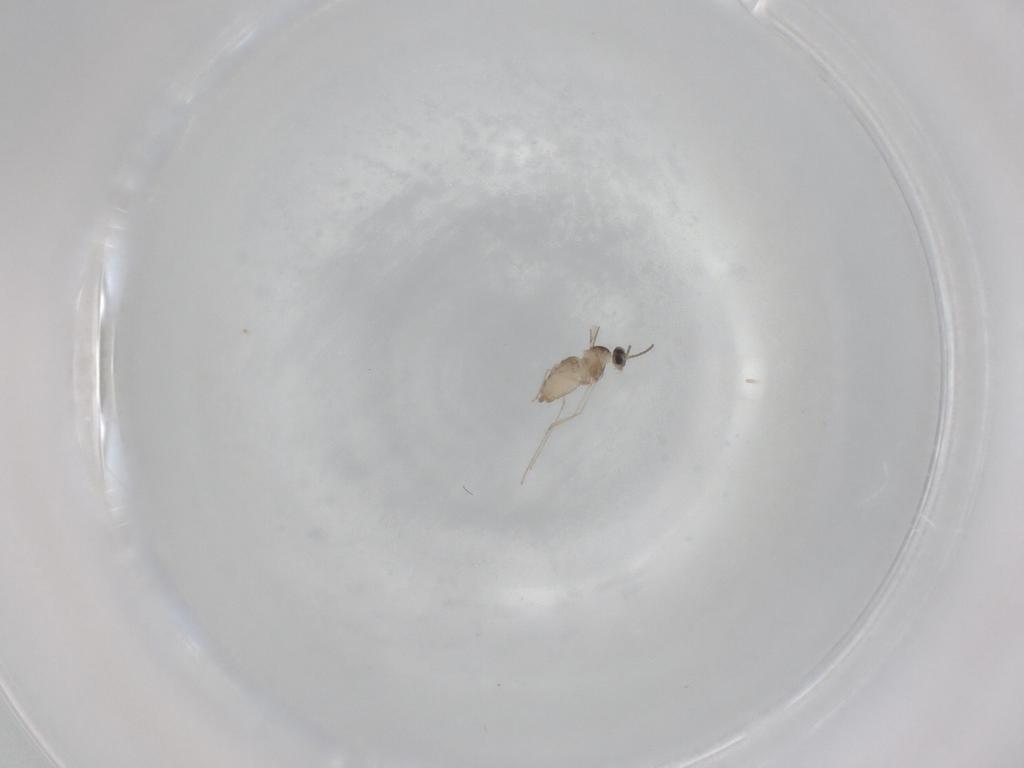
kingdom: Animalia
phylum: Arthropoda
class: Insecta
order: Diptera
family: Cecidomyiidae
